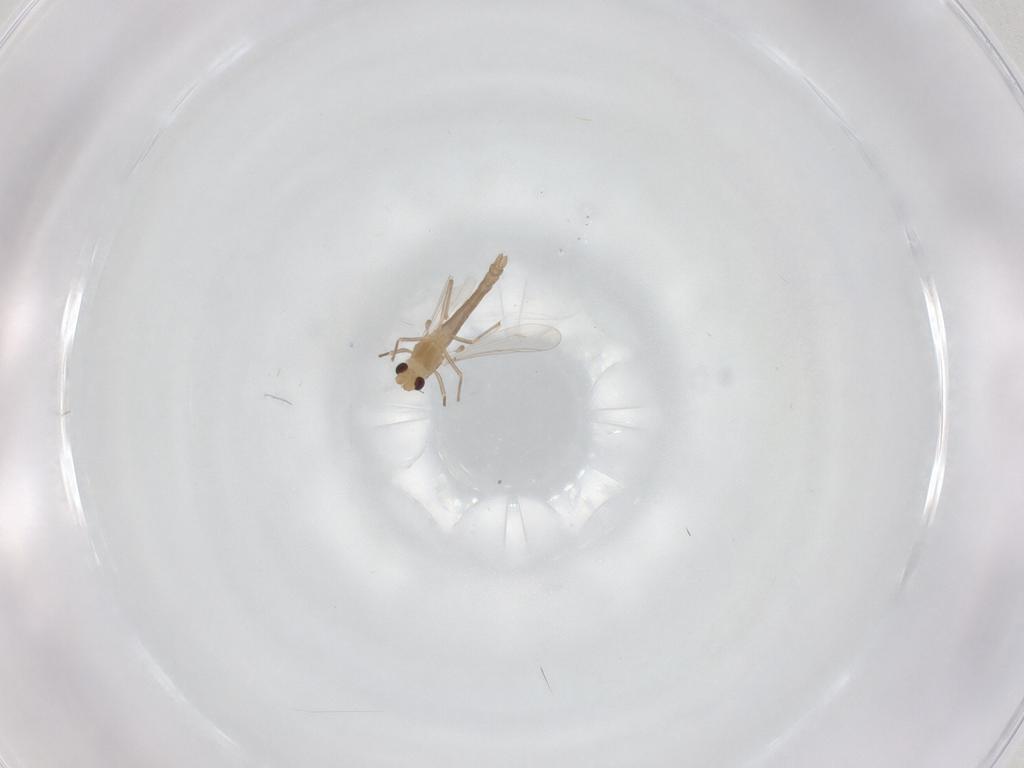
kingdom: Animalia
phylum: Arthropoda
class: Insecta
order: Diptera
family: Chironomidae
